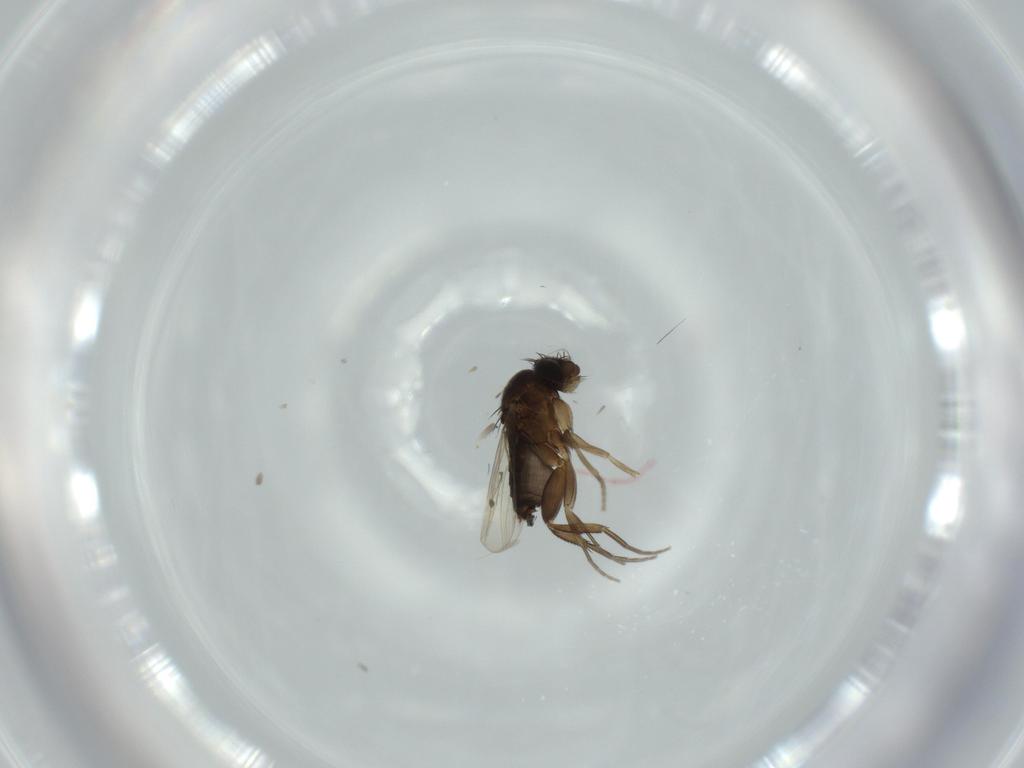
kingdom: Animalia
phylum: Arthropoda
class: Insecta
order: Diptera
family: Phoridae
